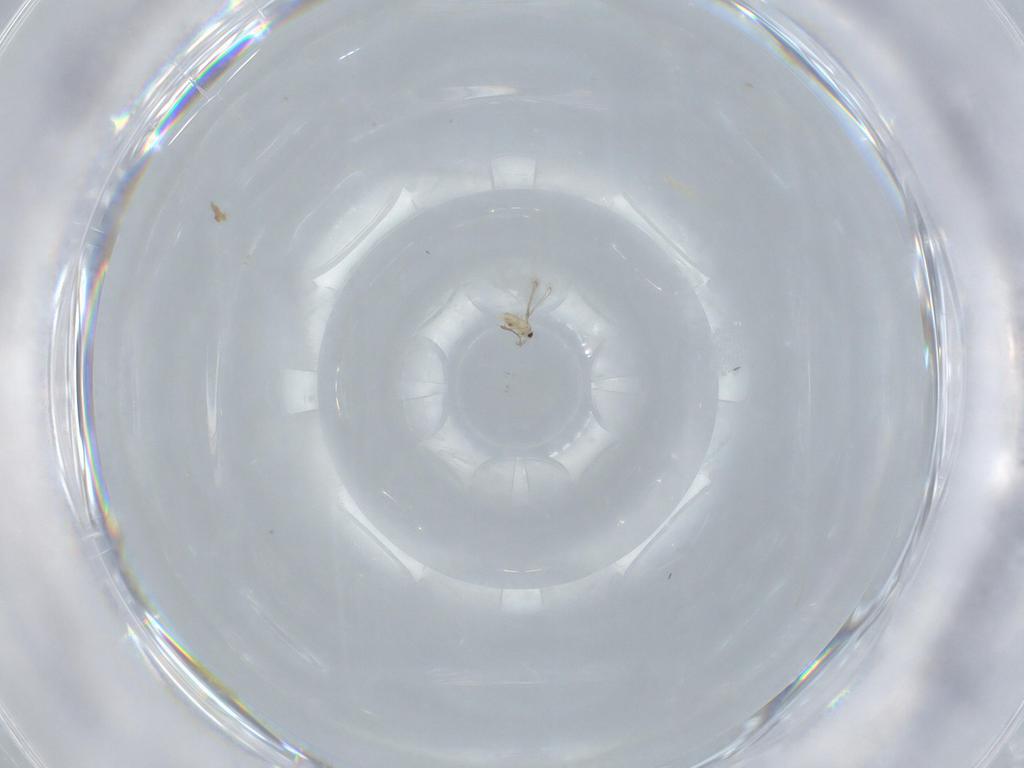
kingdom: Animalia
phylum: Arthropoda
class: Insecta
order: Hymenoptera
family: Mymaridae
